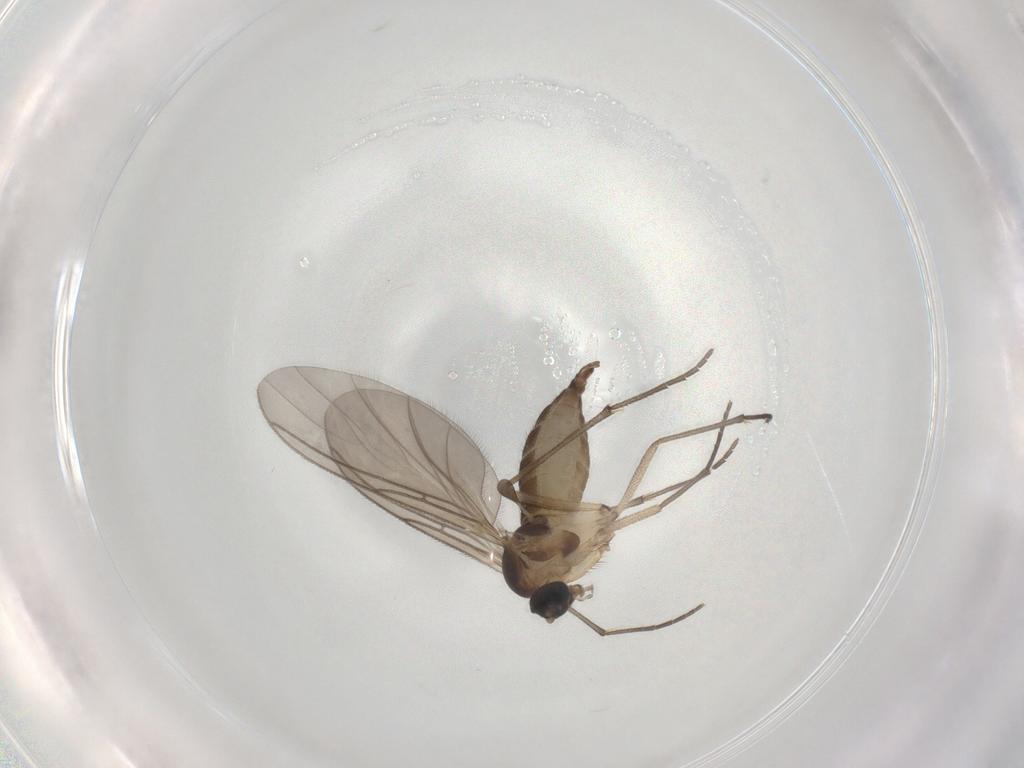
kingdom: Animalia
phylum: Arthropoda
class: Insecta
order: Diptera
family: Sciaridae
